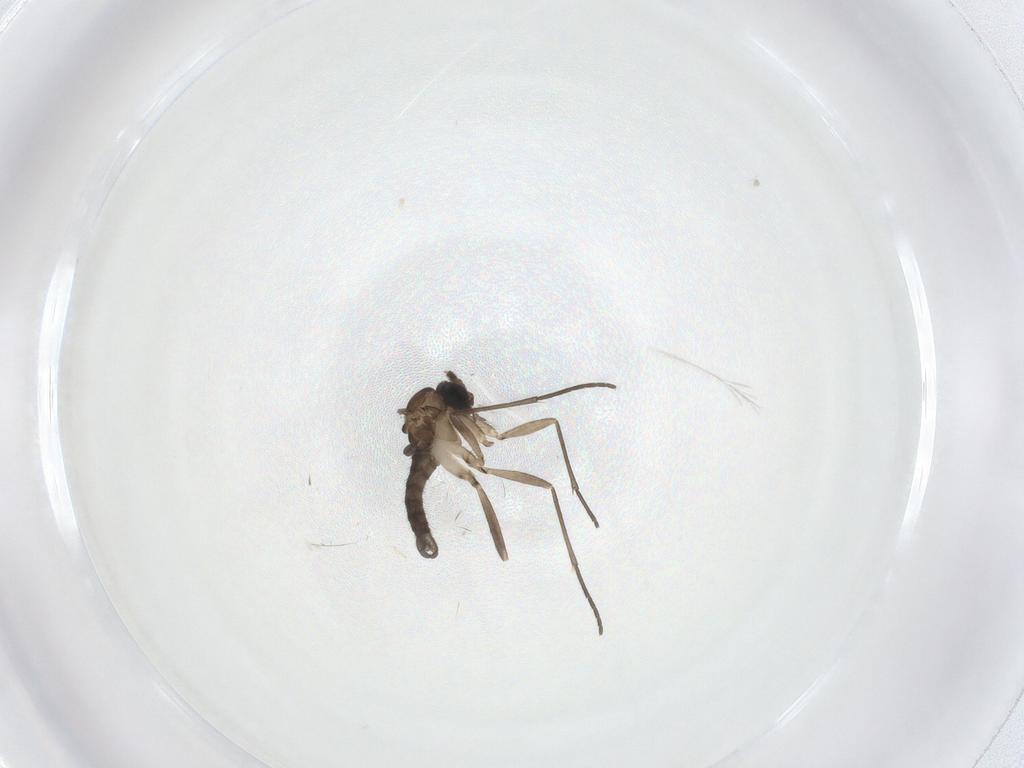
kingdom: Animalia
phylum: Arthropoda
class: Insecta
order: Diptera
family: Sciaridae
